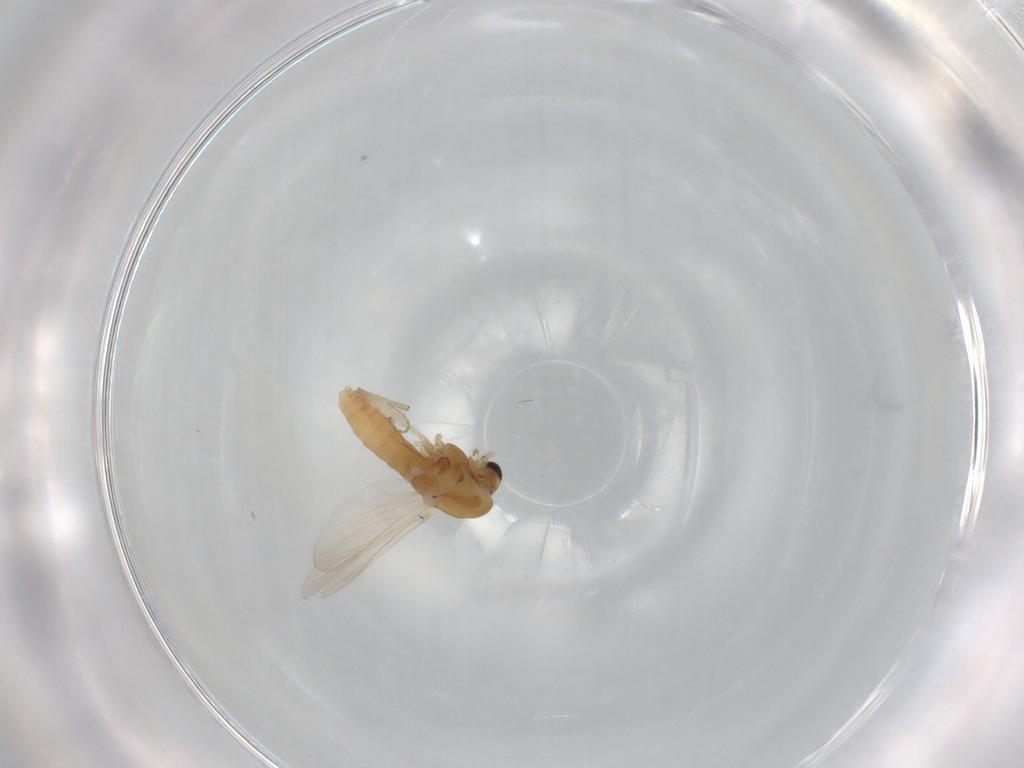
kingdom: Animalia
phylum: Arthropoda
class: Insecta
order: Diptera
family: Chironomidae
